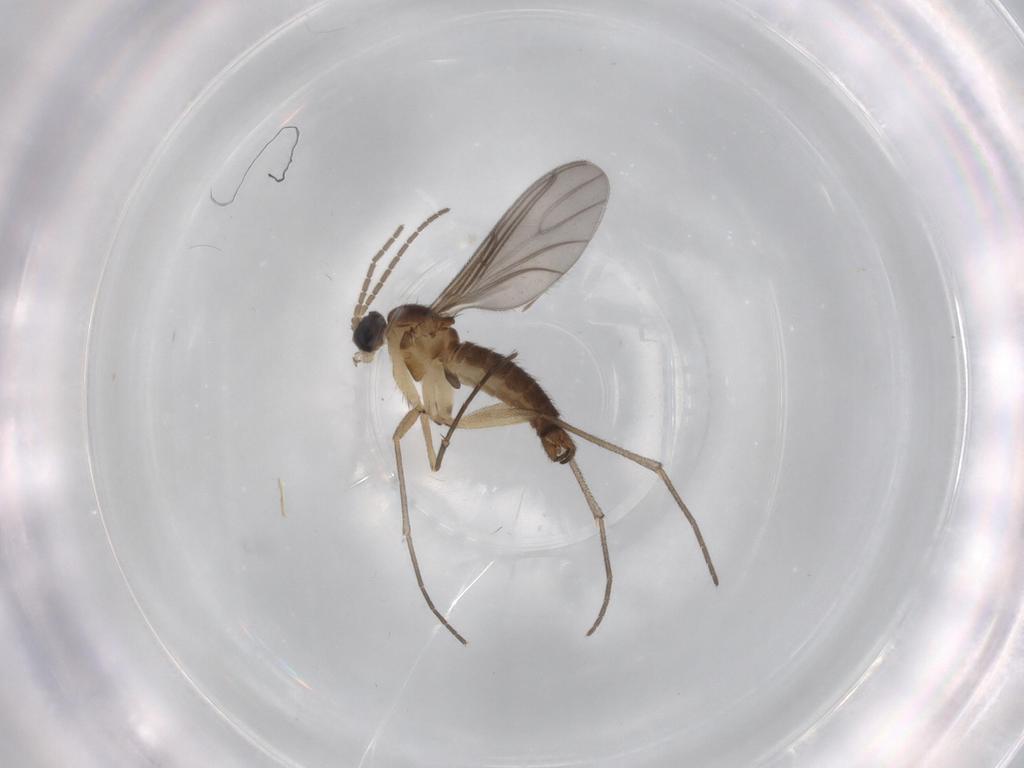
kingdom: Animalia
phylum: Arthropoda
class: Insecta
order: Diptera
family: Sciaridae
